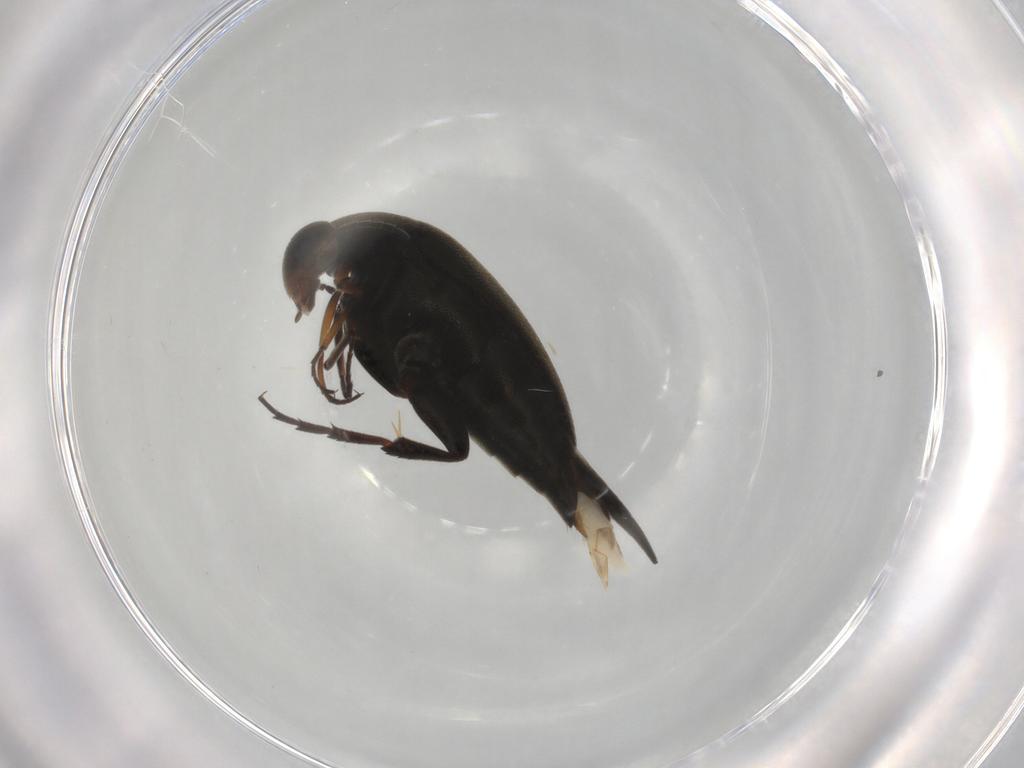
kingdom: Animalia
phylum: Arthropoda
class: Insecta
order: Coleoptera
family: Mordellidae
